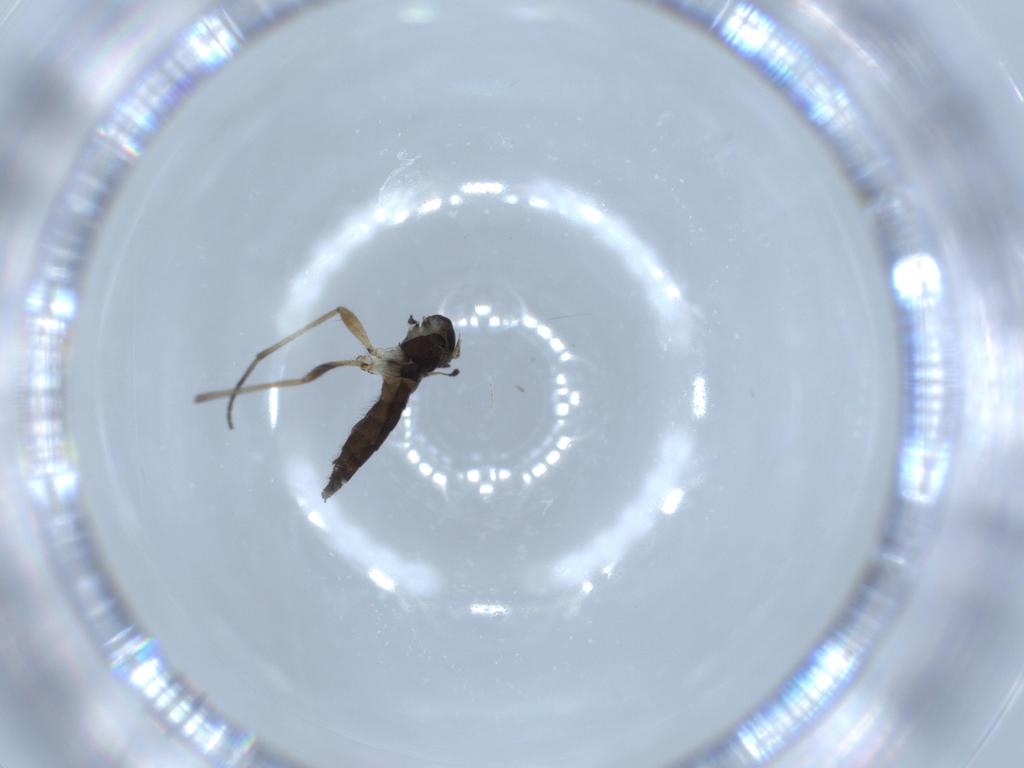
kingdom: Animalia
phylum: Arthropoda
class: Insecta
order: Diptera
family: Sciaridae
